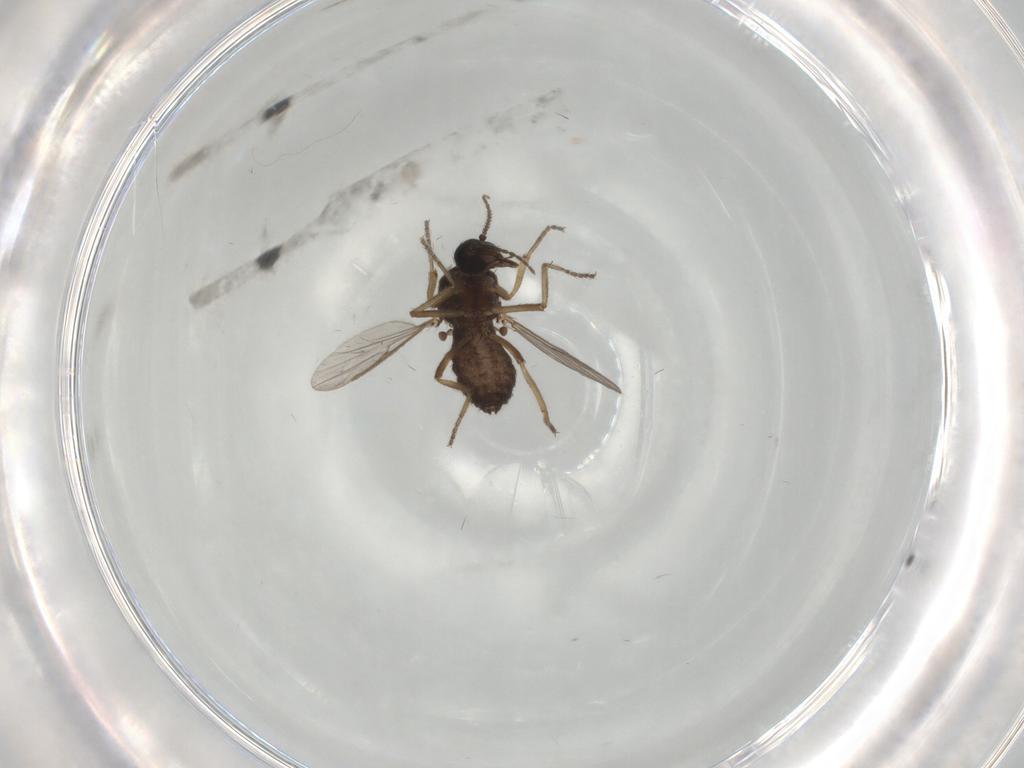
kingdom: Animalia
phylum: Arthropoda
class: Insecta
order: Diptera
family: Ceratopogonidae
